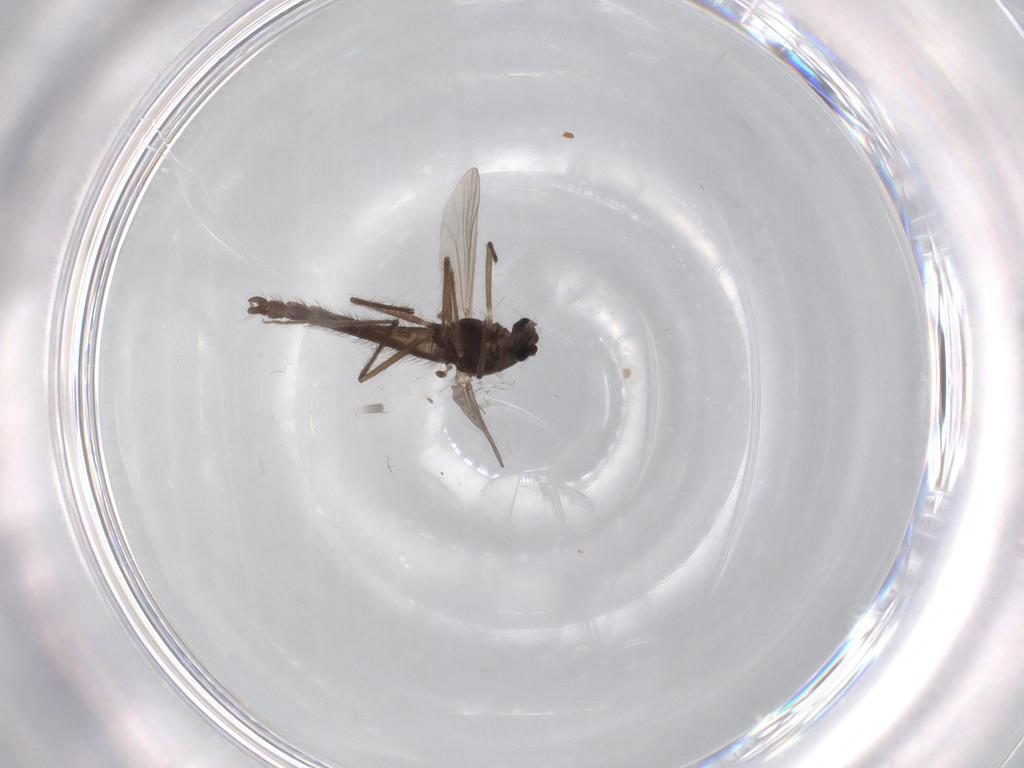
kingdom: Animalia
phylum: Arthropoda
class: Insecta
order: Diptera
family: Chironomidae
